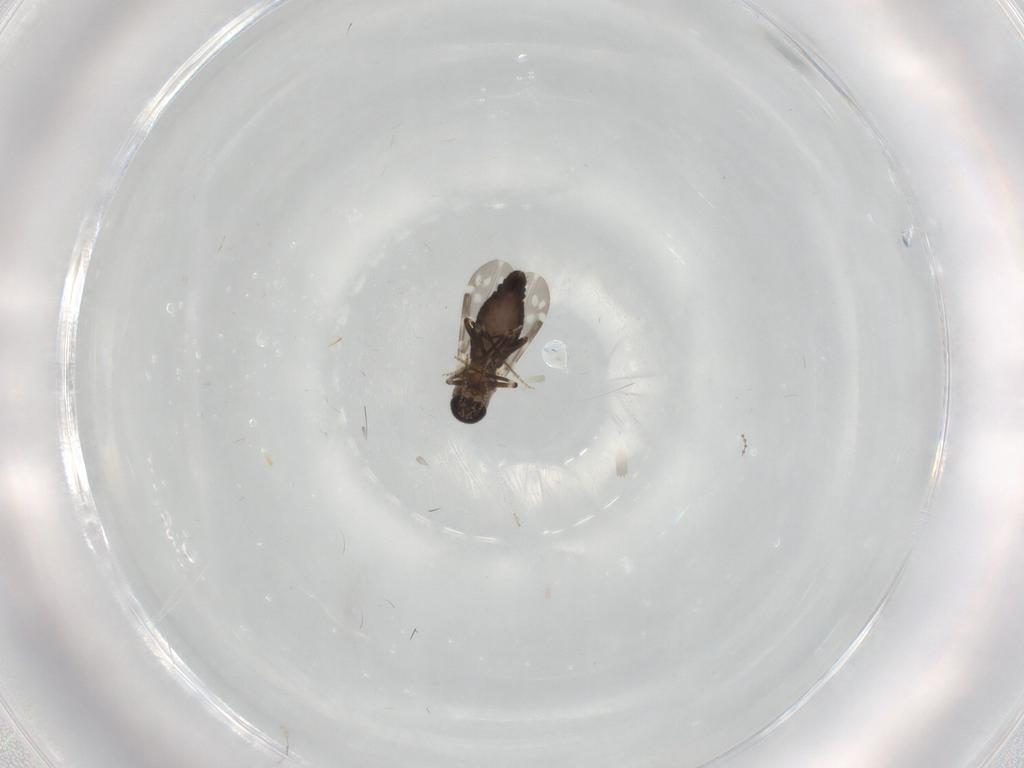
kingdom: Animalia
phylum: Arthropoda
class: Insecta
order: Diptera
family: Ceratopogonidae
